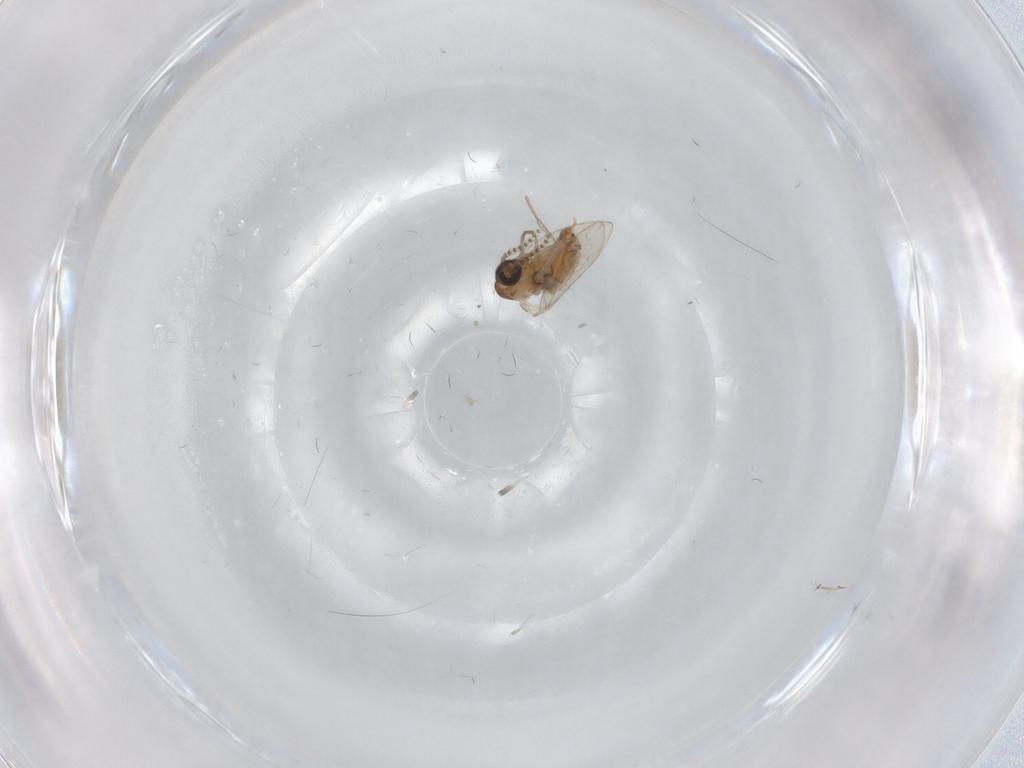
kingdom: Animalia
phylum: Arthropoda
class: Insecta
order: Diptera
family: Psychodidae
